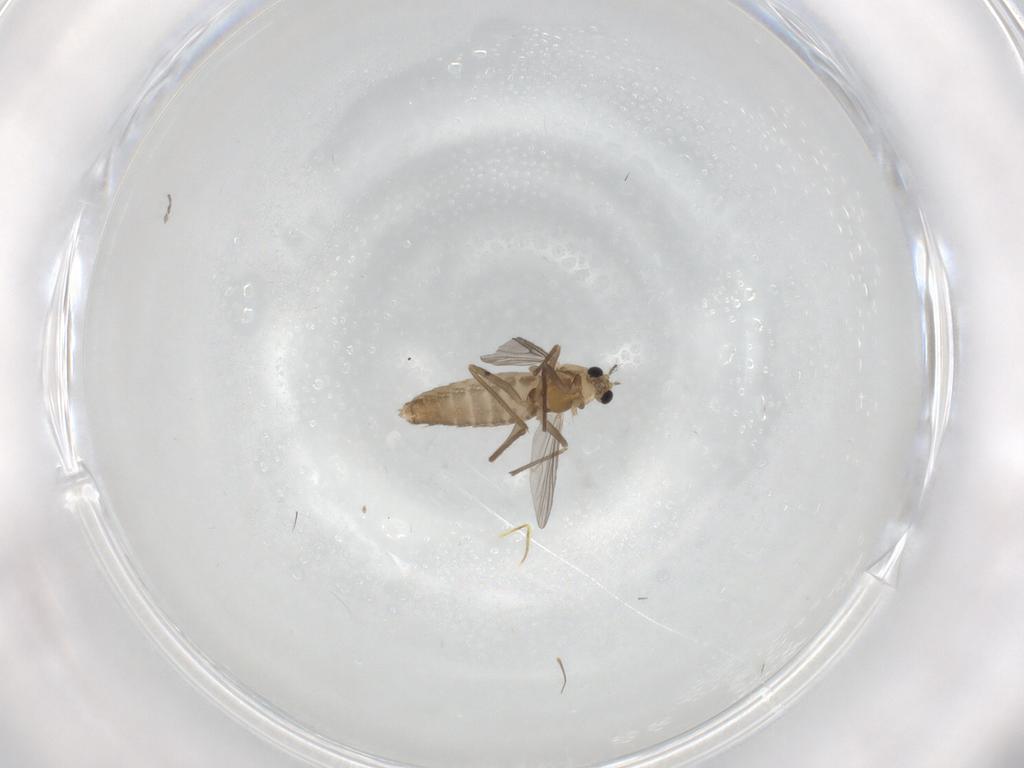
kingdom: Animalia
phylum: Arthropoda
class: Insecta
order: Diptera
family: Chironomidae
